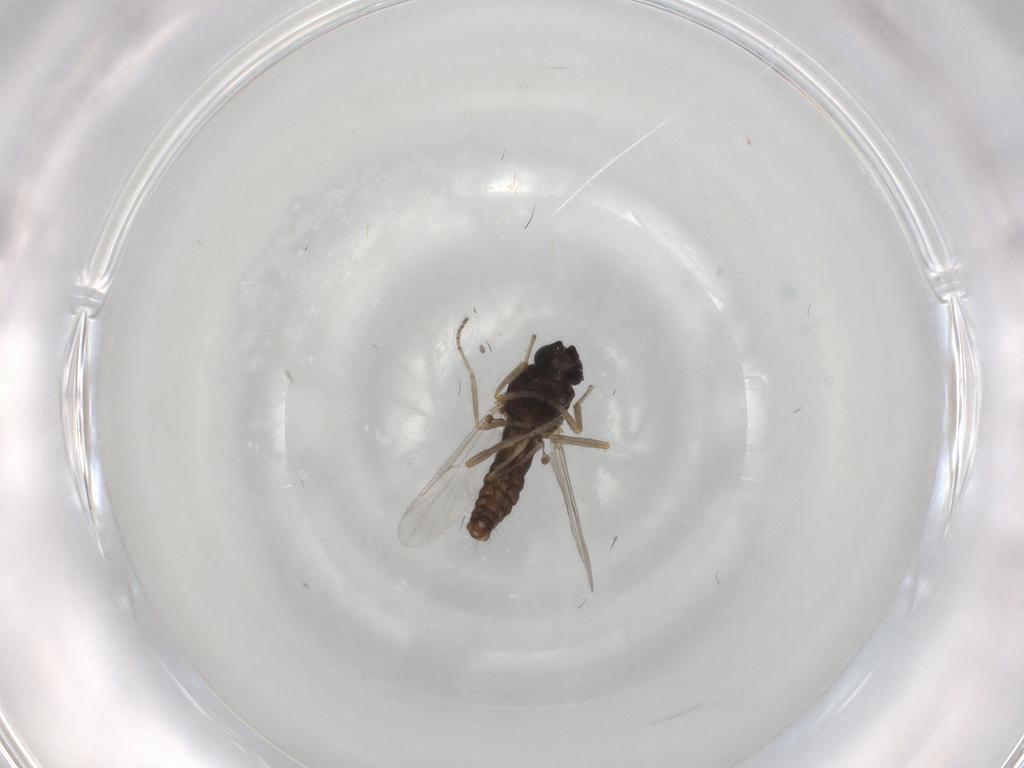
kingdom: Animalia
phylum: Arthropoda
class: Insecta
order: Diptera
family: Ceratopogonidae
